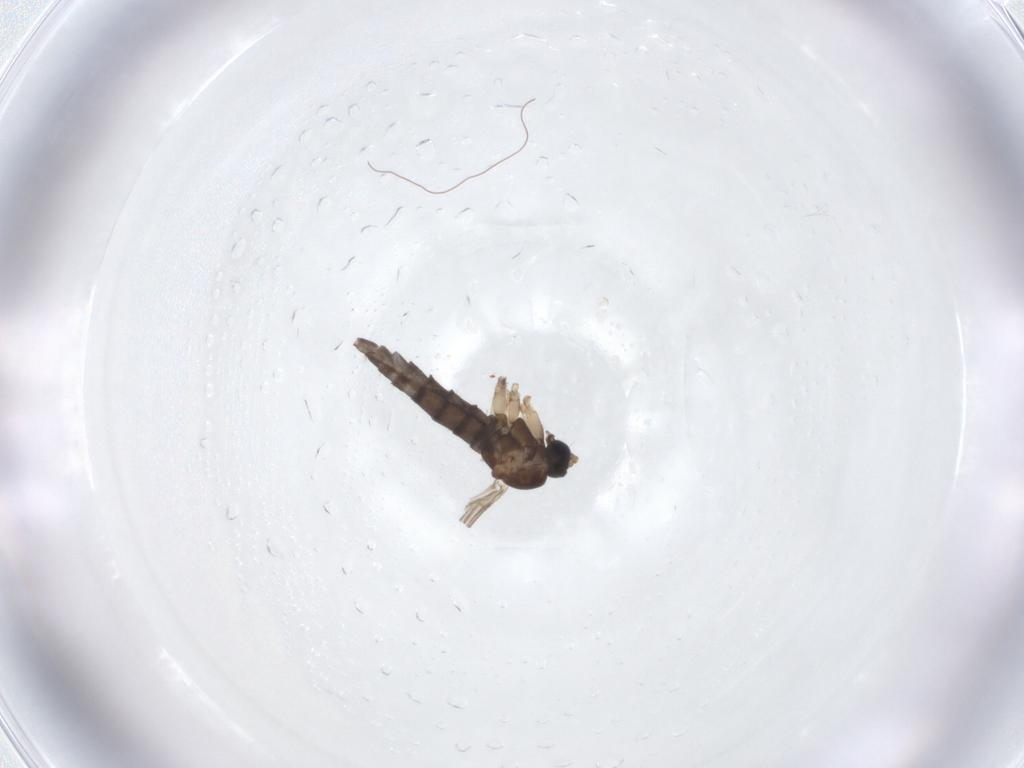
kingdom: Animalia
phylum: Arthropoda
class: Insecta
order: Diptera
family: Sciaridae
